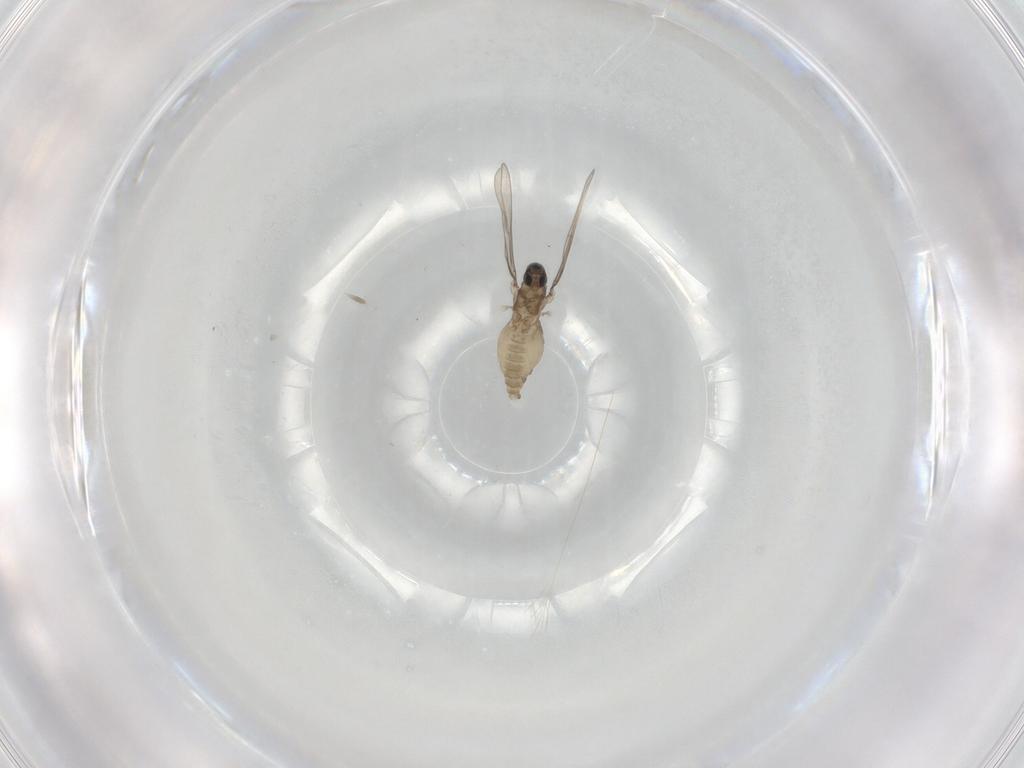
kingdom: Animalia
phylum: Arthropoda
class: Insecta
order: Diptera
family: Cecidomyiidae
